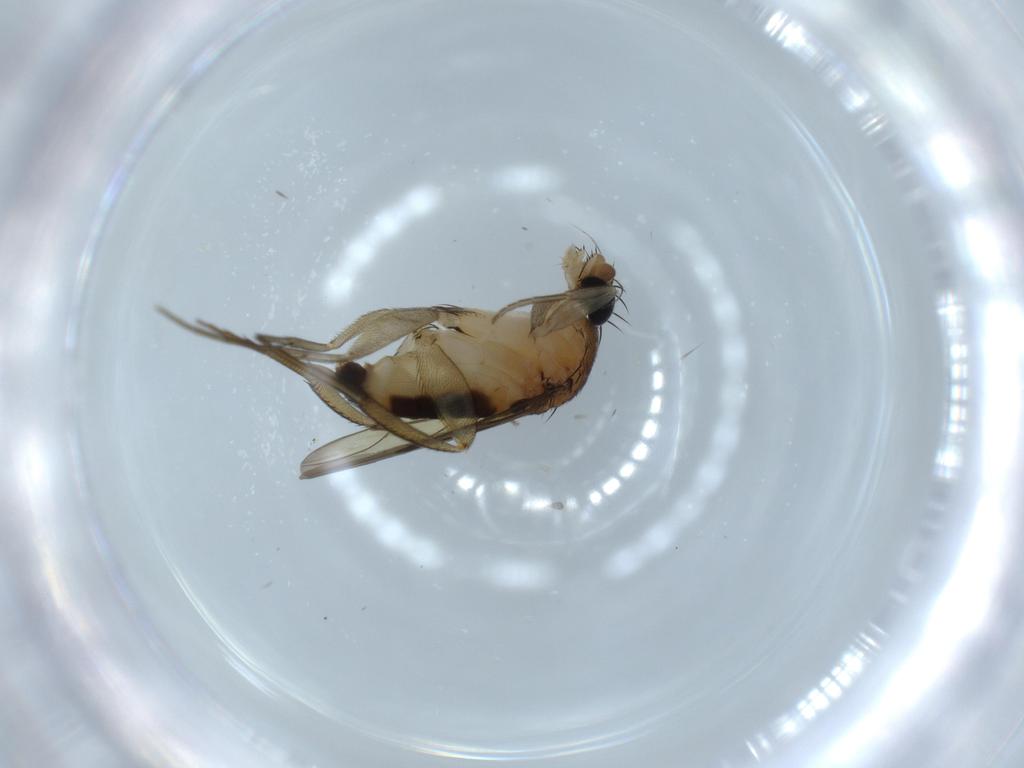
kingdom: Animalia
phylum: Arthropoda
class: Insecta
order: Diptera
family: Phoridae
